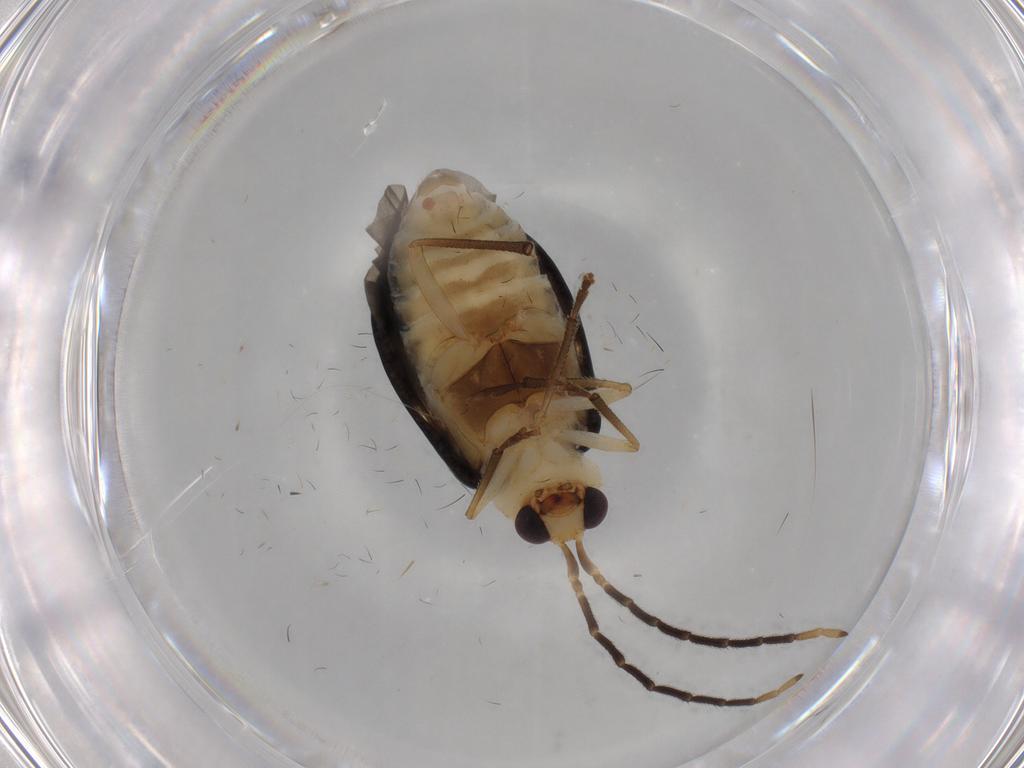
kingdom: Animalia
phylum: Arthropoda
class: Insecta
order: Coleoptera
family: Chrysomelidae
